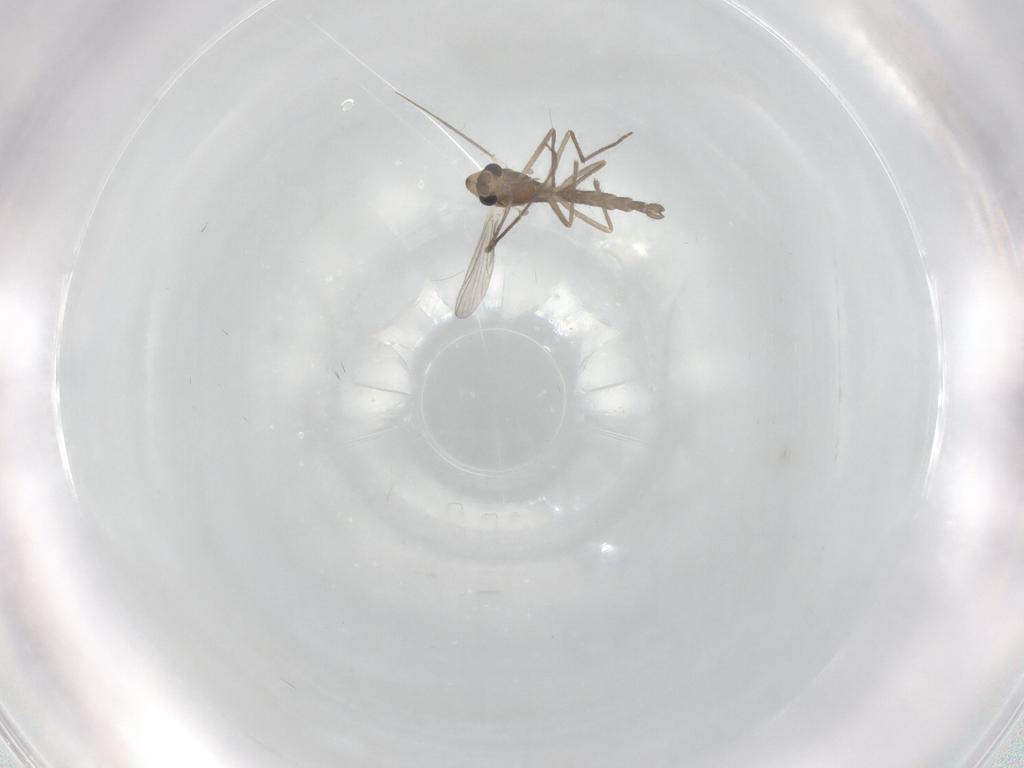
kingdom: Animalia
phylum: Arthropoda
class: Insecta
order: Diptera
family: Chironomidae
